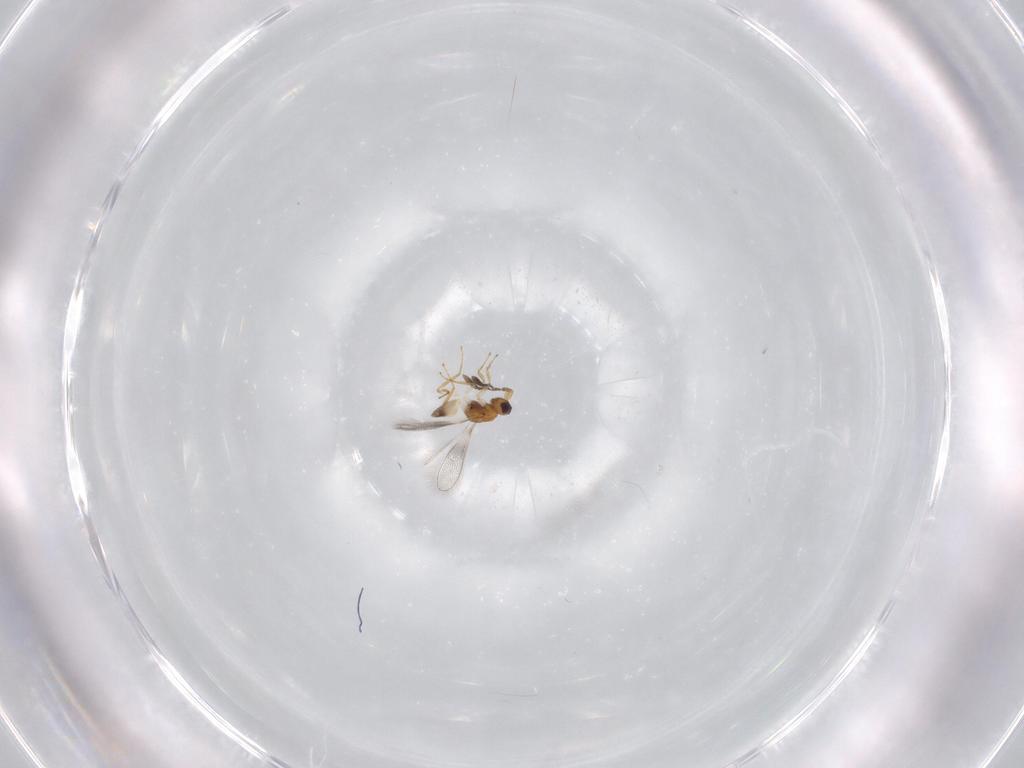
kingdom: Animalia
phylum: Arthropoda
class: Insecta
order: Hymenoptera
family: Mymaridae
